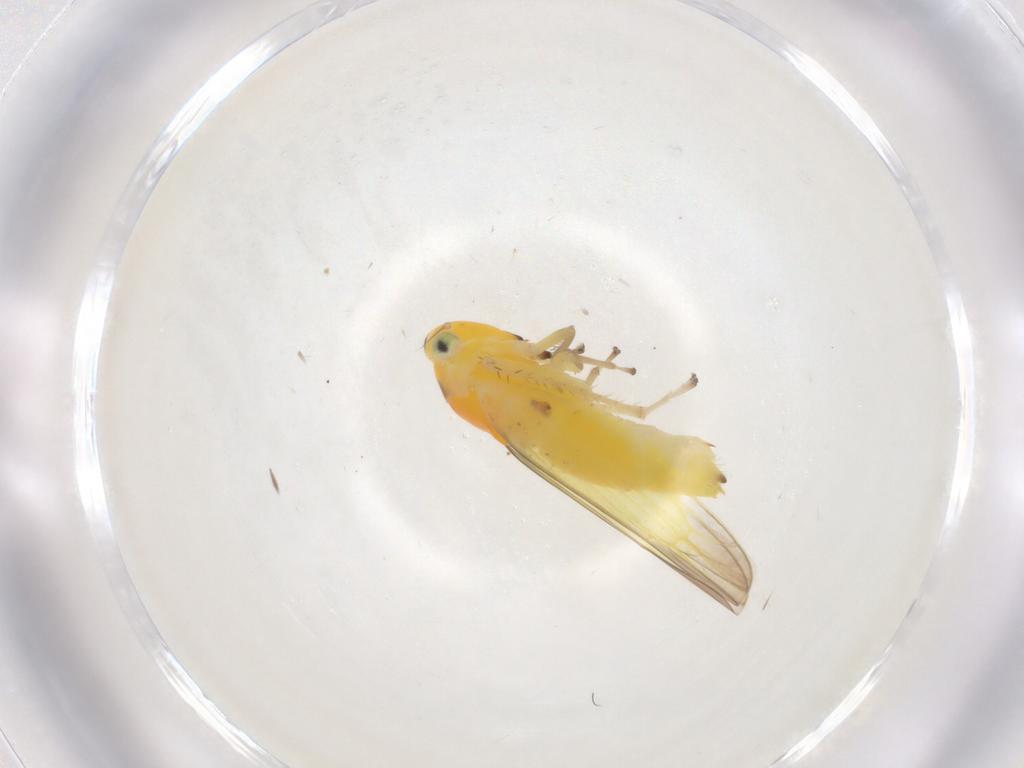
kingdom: Animalia
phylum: Arthropoda
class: Insecta
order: Hemiptera
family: Cicadellidae
